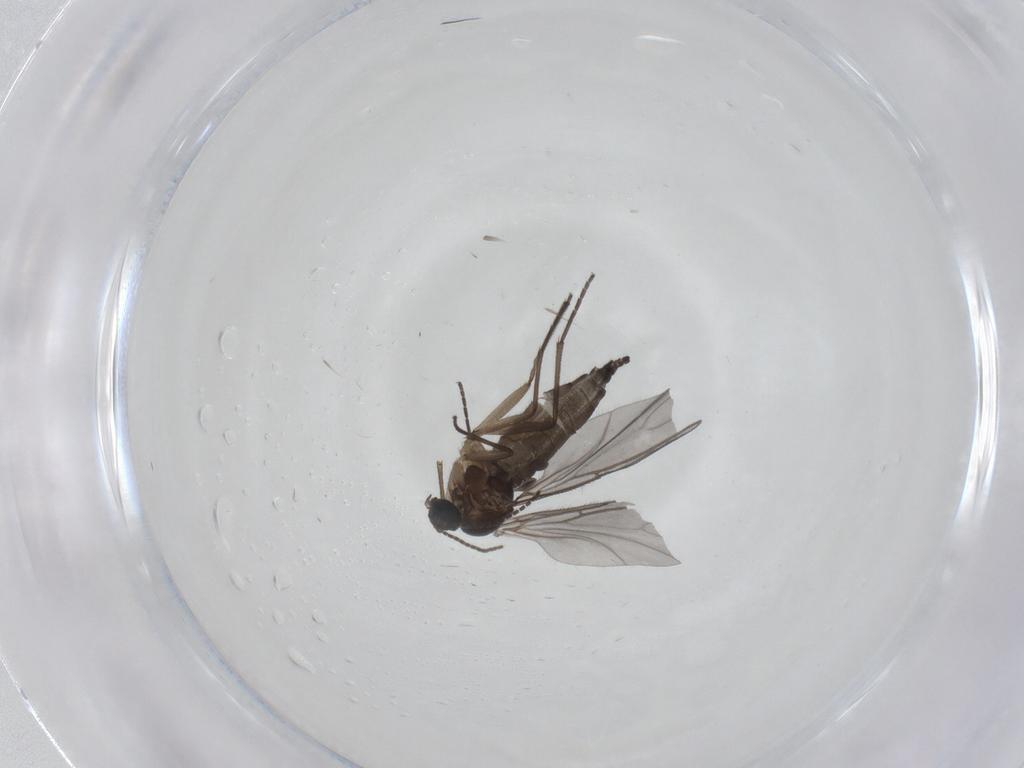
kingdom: Animalia
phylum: Arthropoda
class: Insecta
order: Diptera
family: Sciaridae
